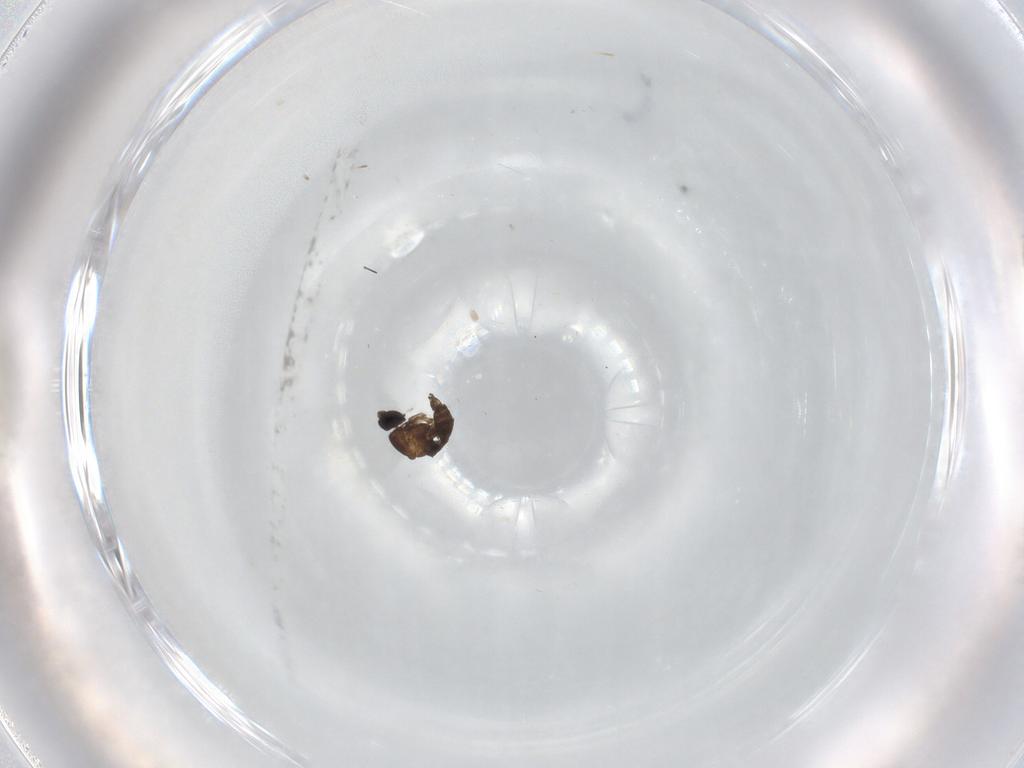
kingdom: Animalia
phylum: Arthropoda
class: Insecta
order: Diptera
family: Sciaridae
